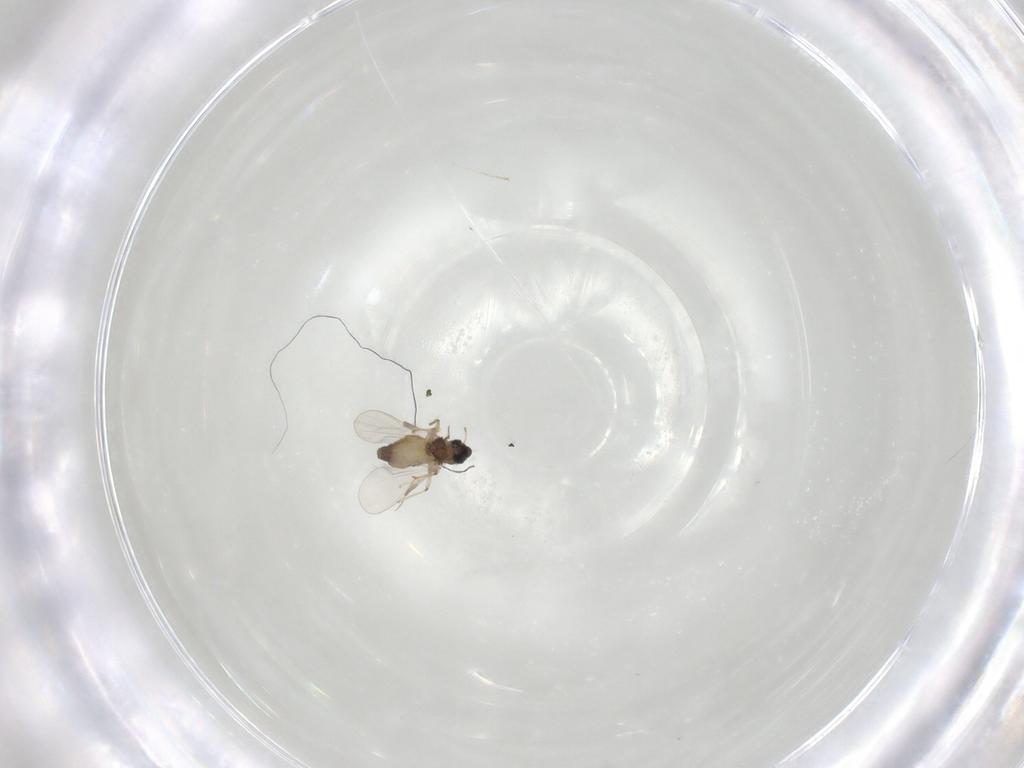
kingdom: Animalia
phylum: Arthropoda
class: Insecta
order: Diptera
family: Chironomidae
